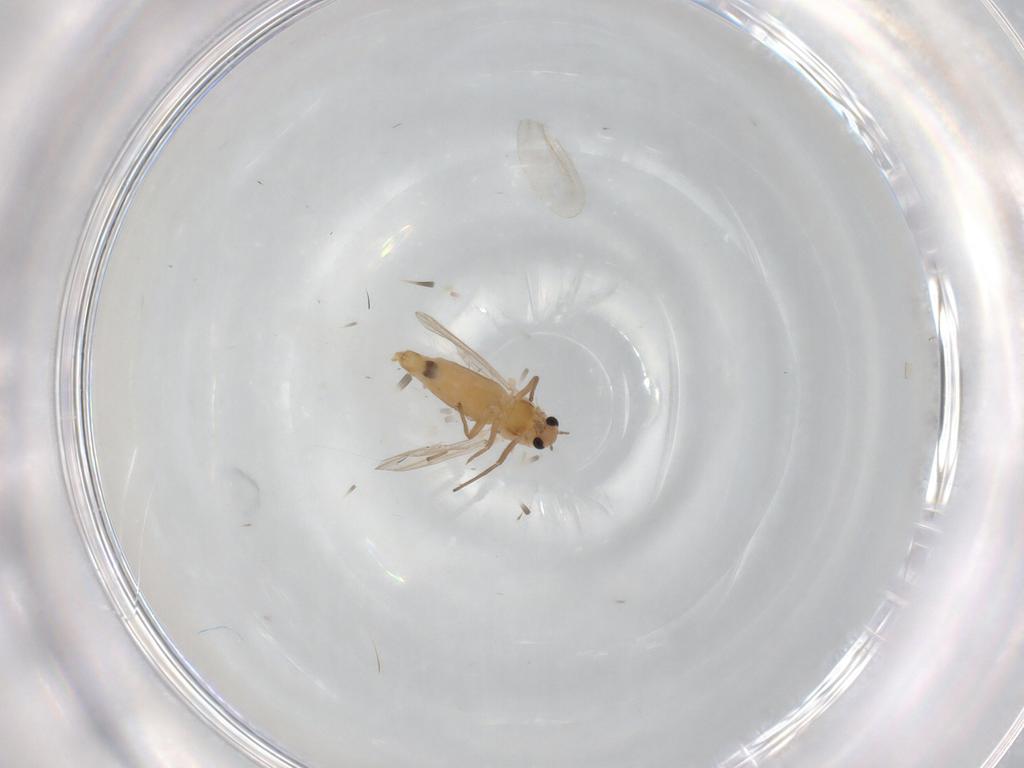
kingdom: Animalia
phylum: Arthropoda
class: Insecta
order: Diptera
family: Chironomidae
